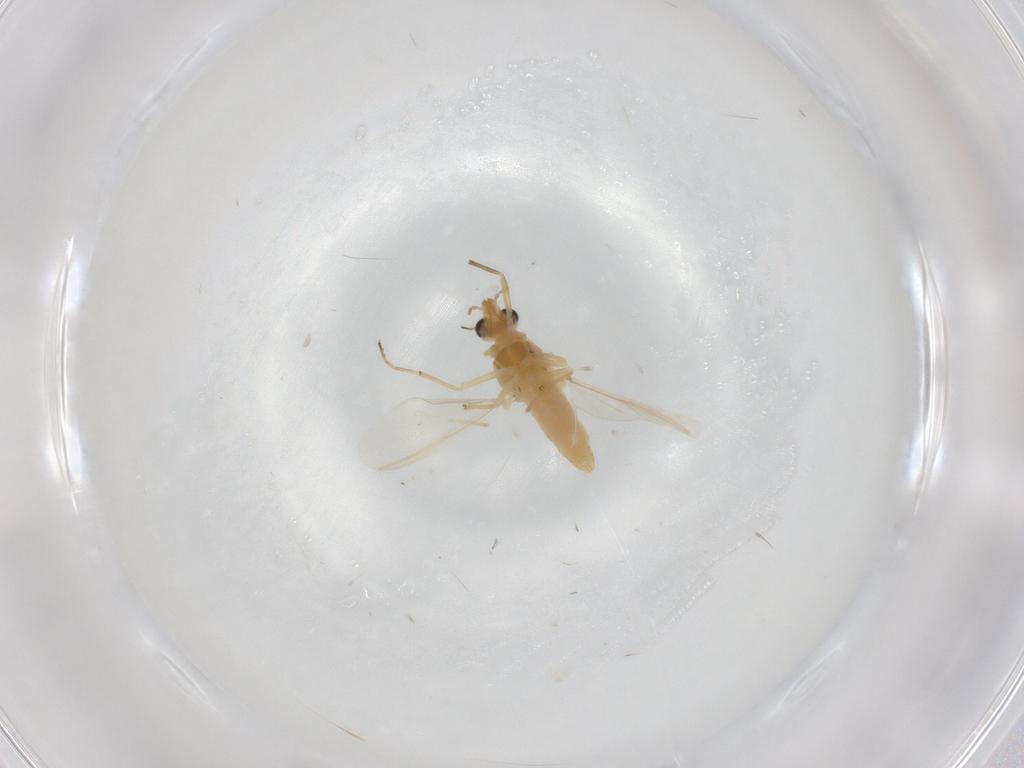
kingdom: Animalia
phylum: Arthropoda
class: Insecta
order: Diptera
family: Chironomidae
